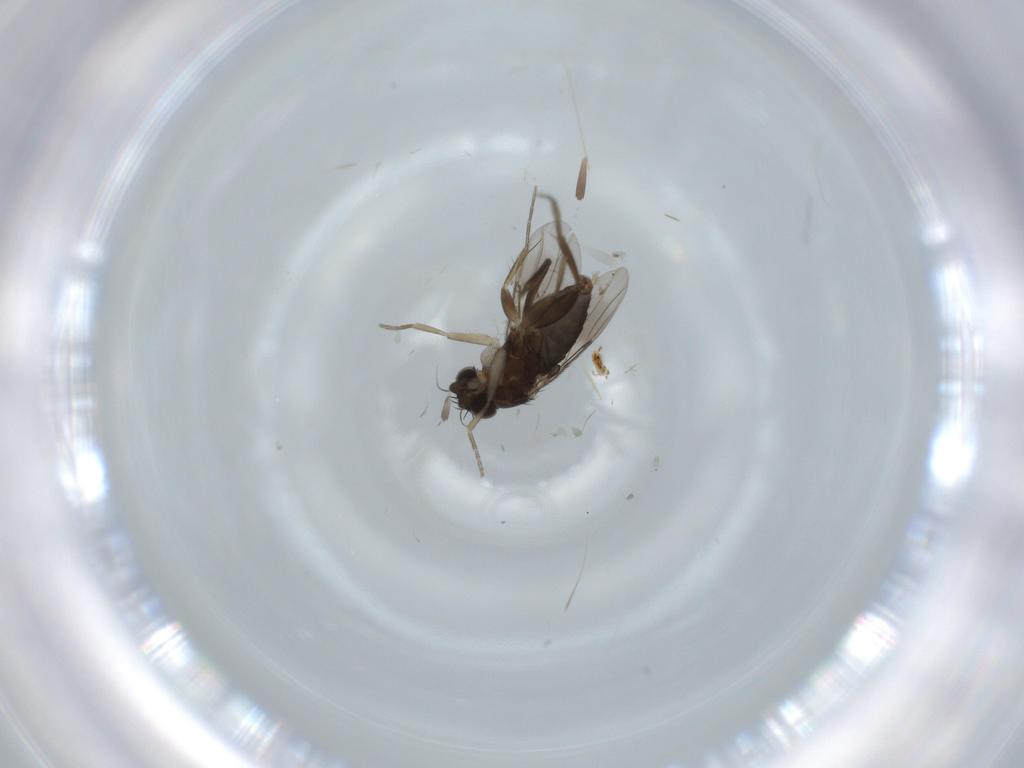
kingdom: Animalia
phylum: Arthropoda
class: Insecta
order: Diptera
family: Phoridae
